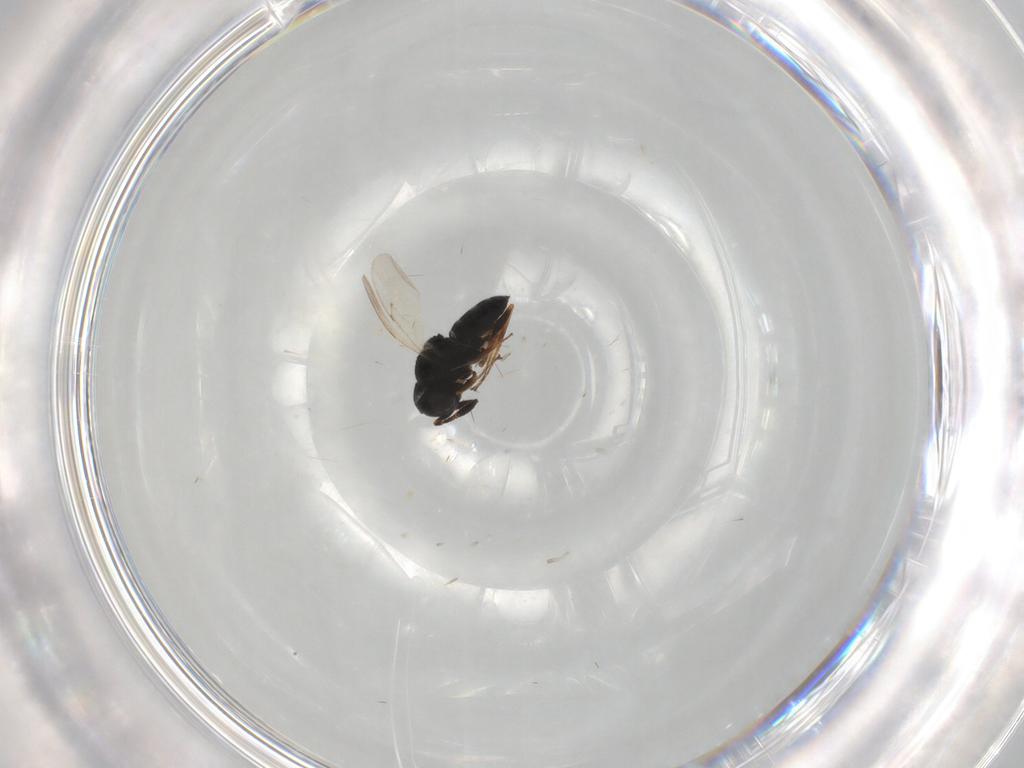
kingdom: Animalia
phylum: Arthropoda
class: Insecta
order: Hymenoptera
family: Scelionidae
